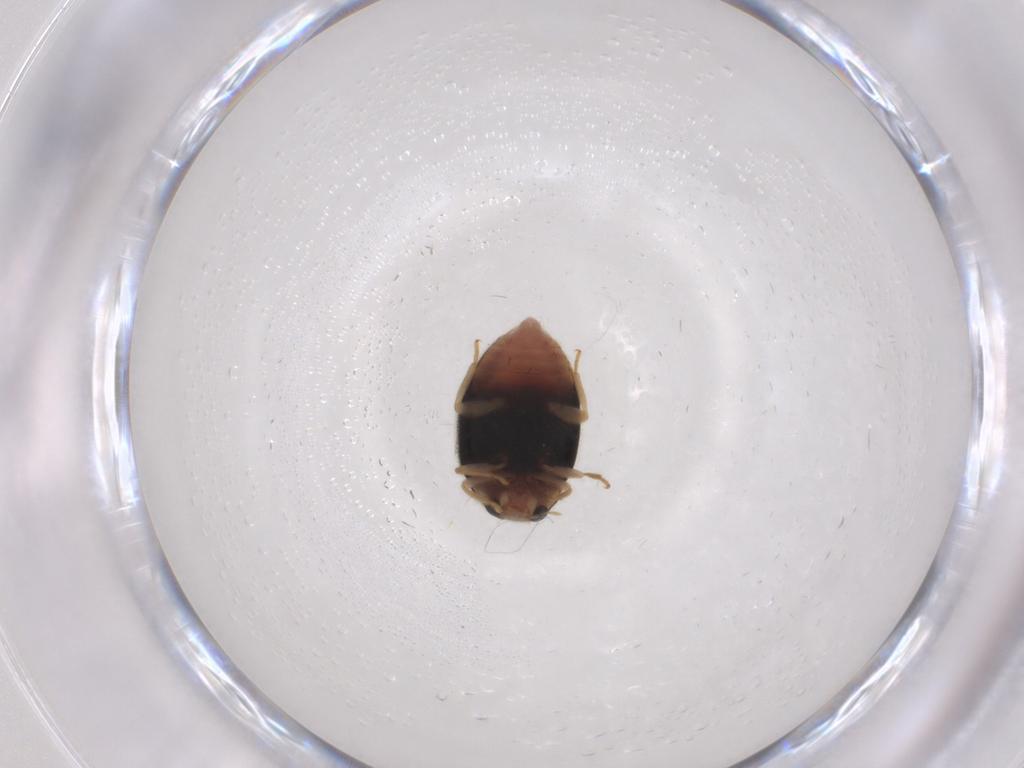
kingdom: Animalia
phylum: Arthropoda
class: Insecta
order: Coleoptera
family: Coccinellidae
